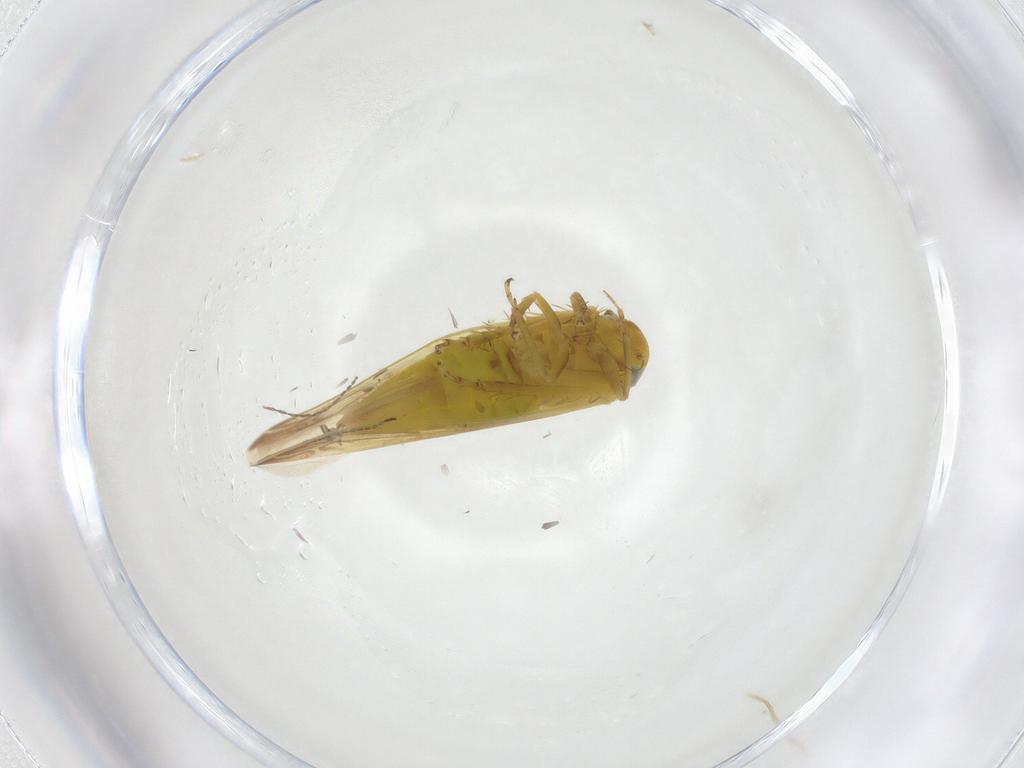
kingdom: Animalia
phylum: Arthropoda
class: Insecta
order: Hemiptera
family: Cicadellidae
